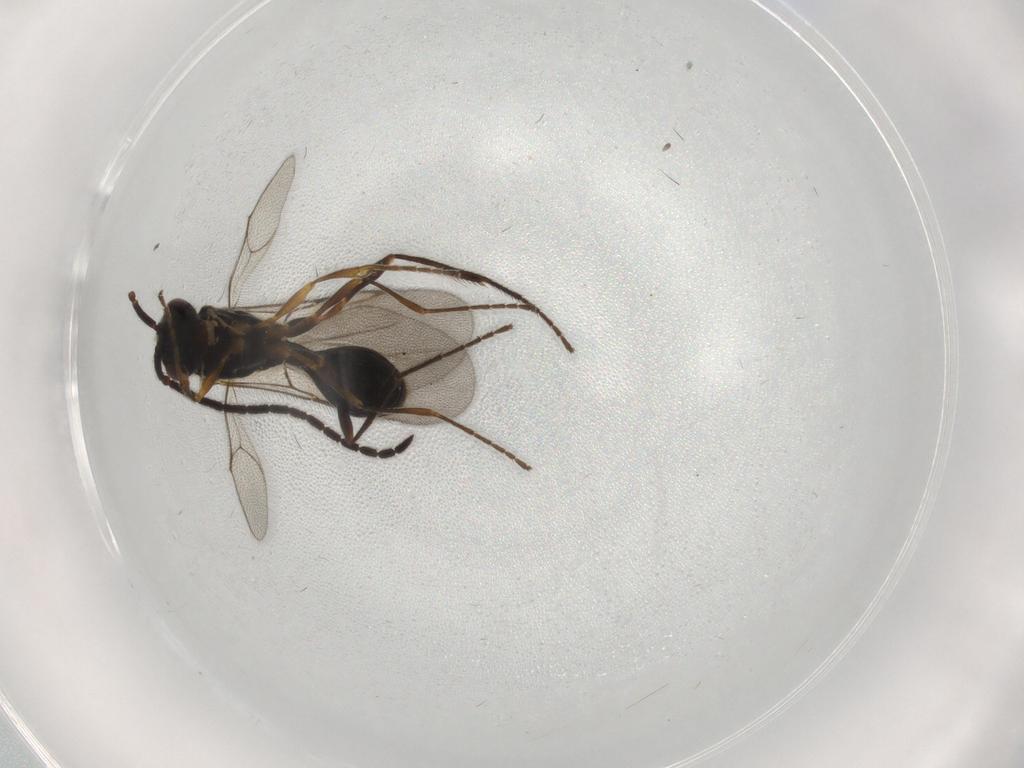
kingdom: Animalia
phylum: Arthropoda
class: Insecta
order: Hymenoptera
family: Diapriidae
